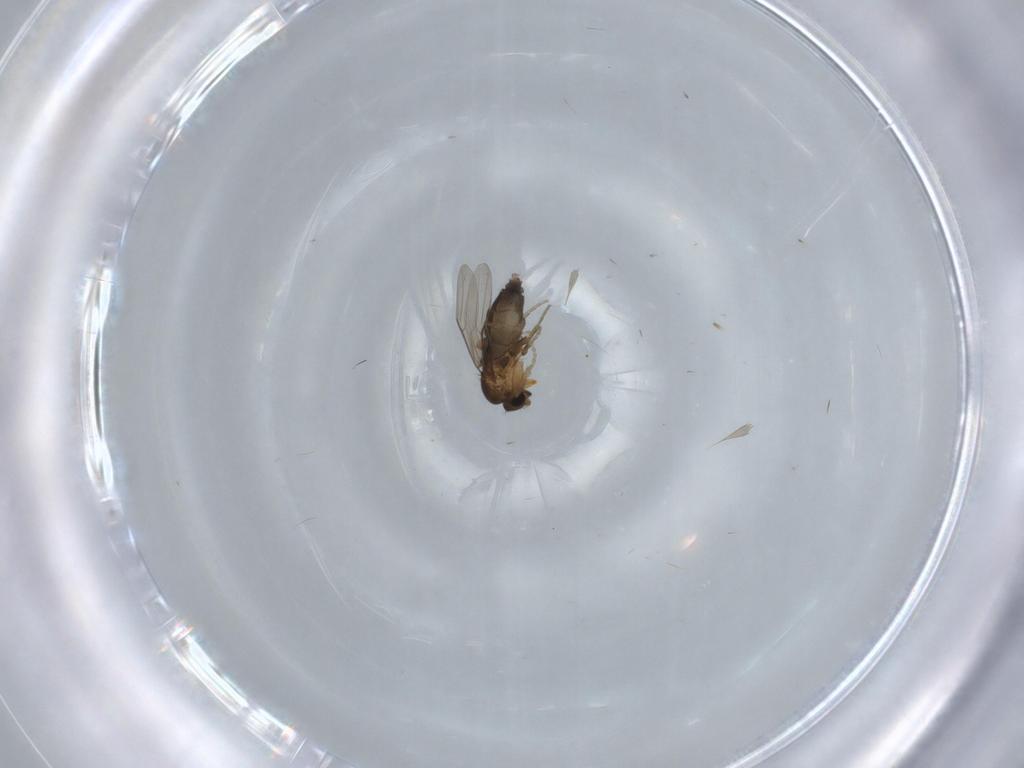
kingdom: Animalia
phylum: Arthropoda
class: Insecta
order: Diptera
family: Phoridae
